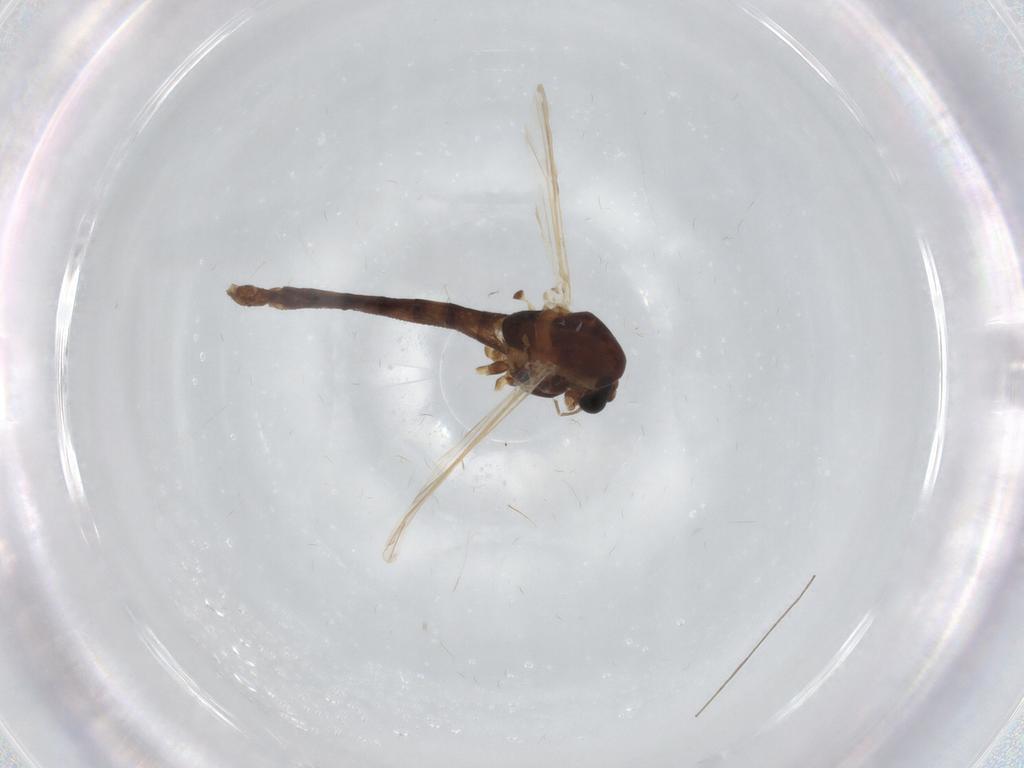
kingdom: Animalia
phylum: Arthropoda
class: Insecta
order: Diptera
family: Chironomidae
